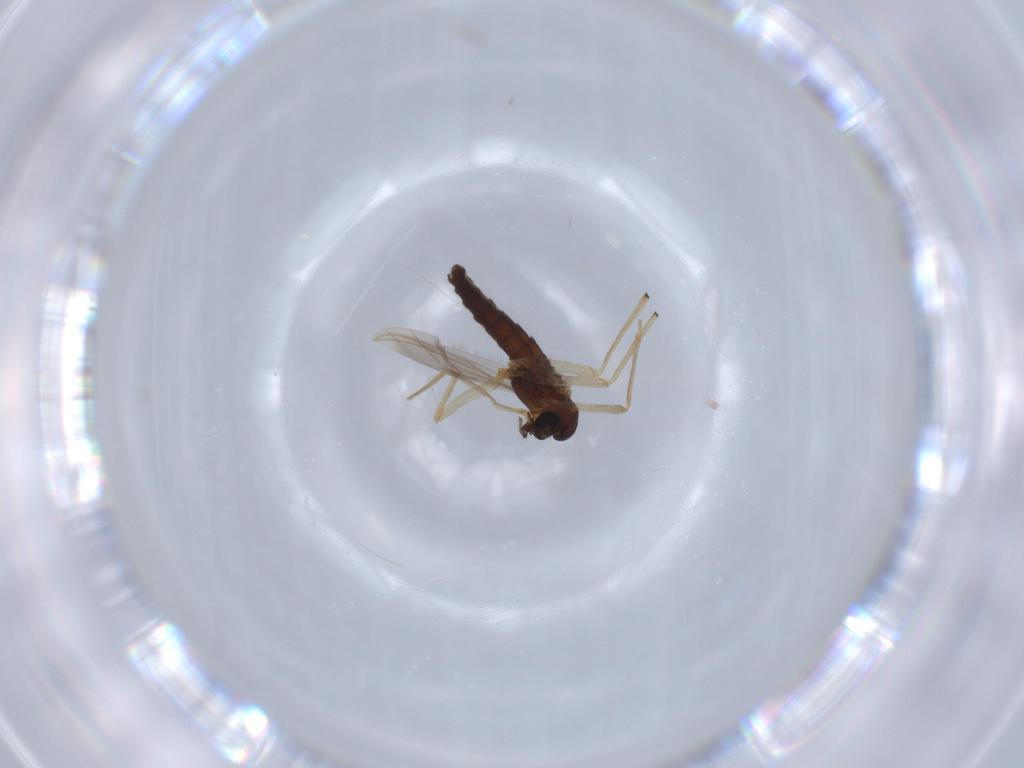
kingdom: Animalia
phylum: Arthropoda
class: Insecta
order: Diptera
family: Chironomidae
